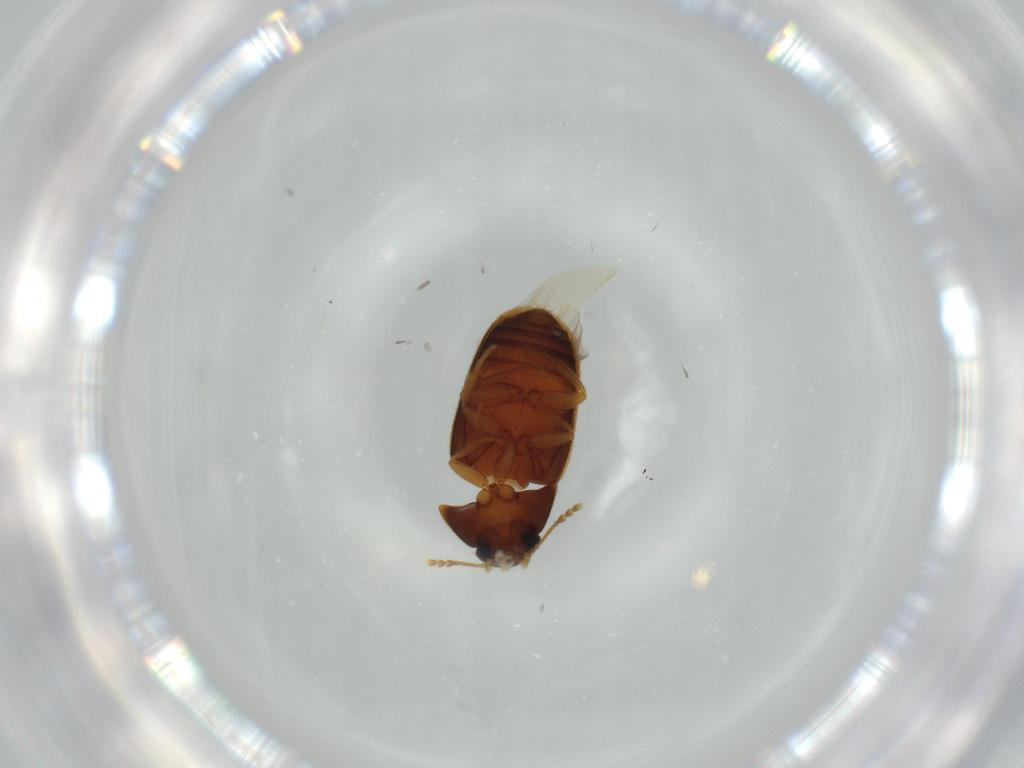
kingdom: Animalia
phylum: Arthropoda
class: Insecta
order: Coleoptera
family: Mycetophagidae
